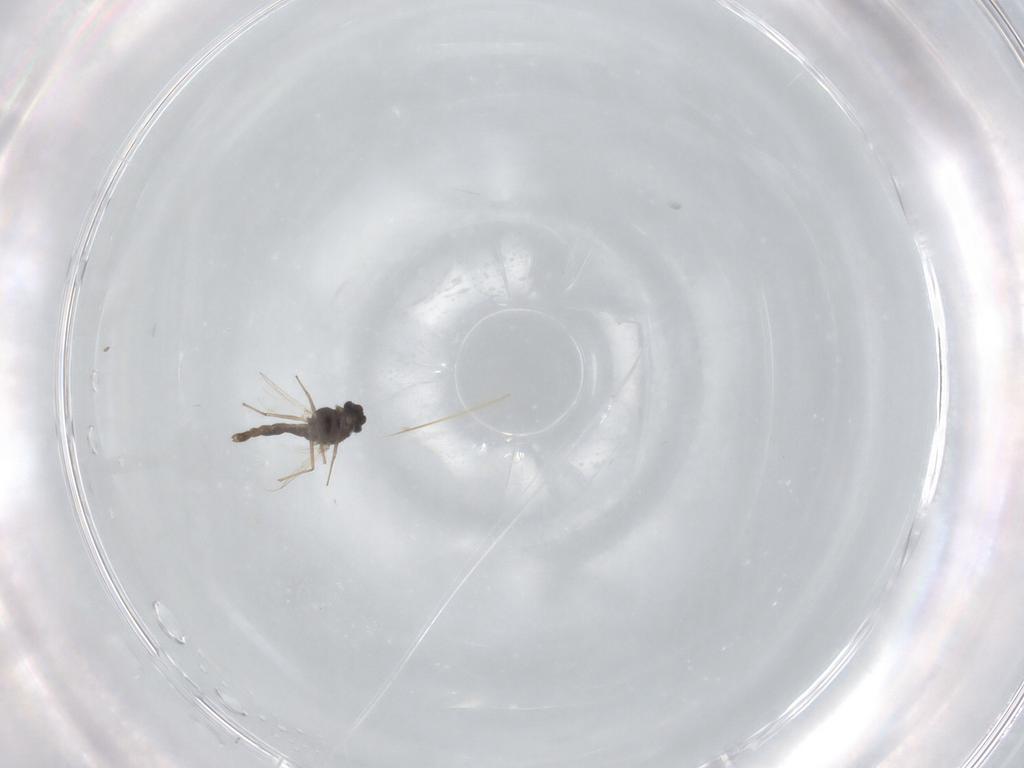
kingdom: Animalia
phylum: Arthropoda
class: Insecta
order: Diptera
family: Chironomidae
